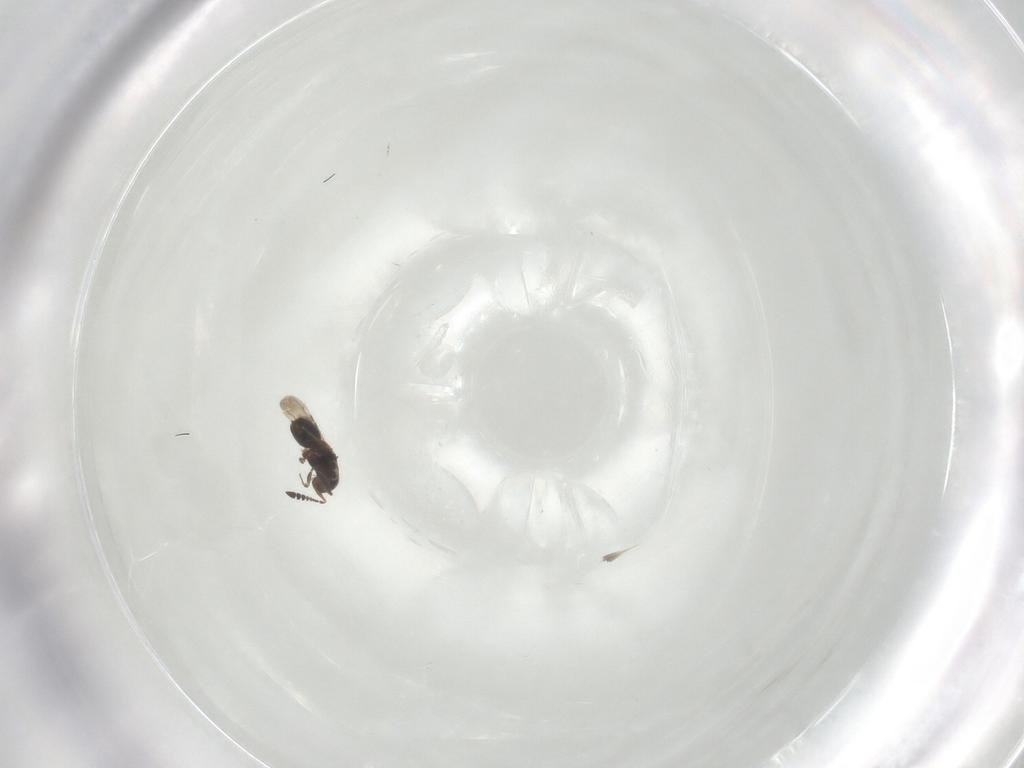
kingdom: Animalia
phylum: Arthropoda
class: Insecta
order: Hymenoptera
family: Ceraphronidae
